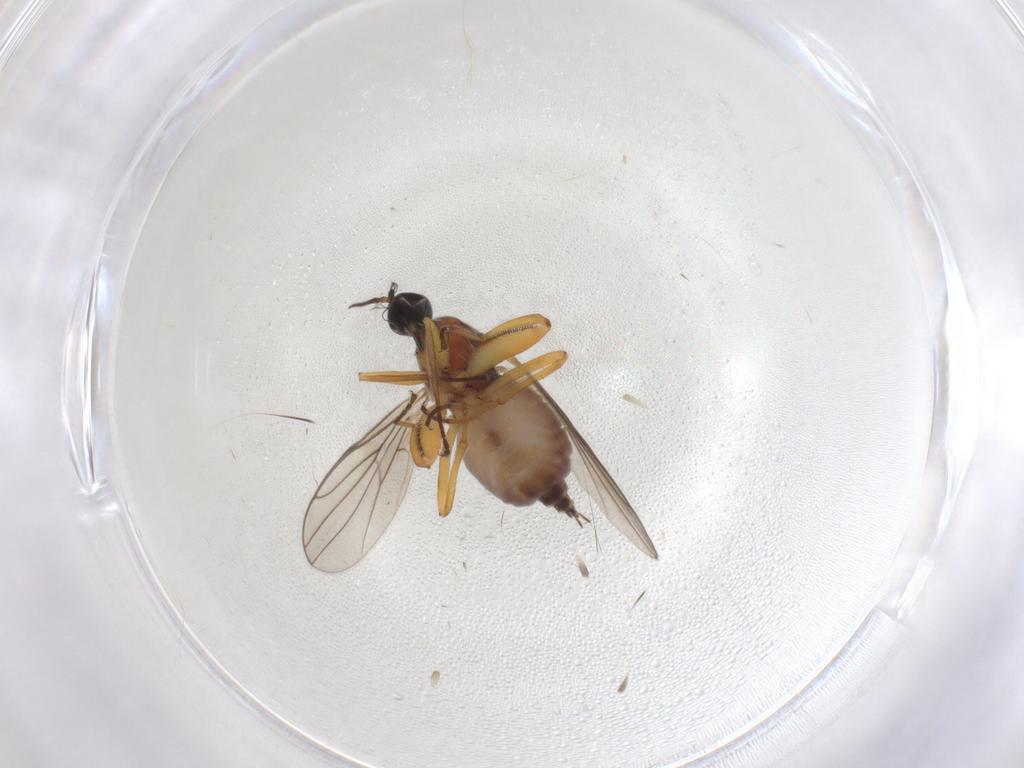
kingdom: Animalia
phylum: Arthropoda
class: Insecta
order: Diptera
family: Hybotidae
